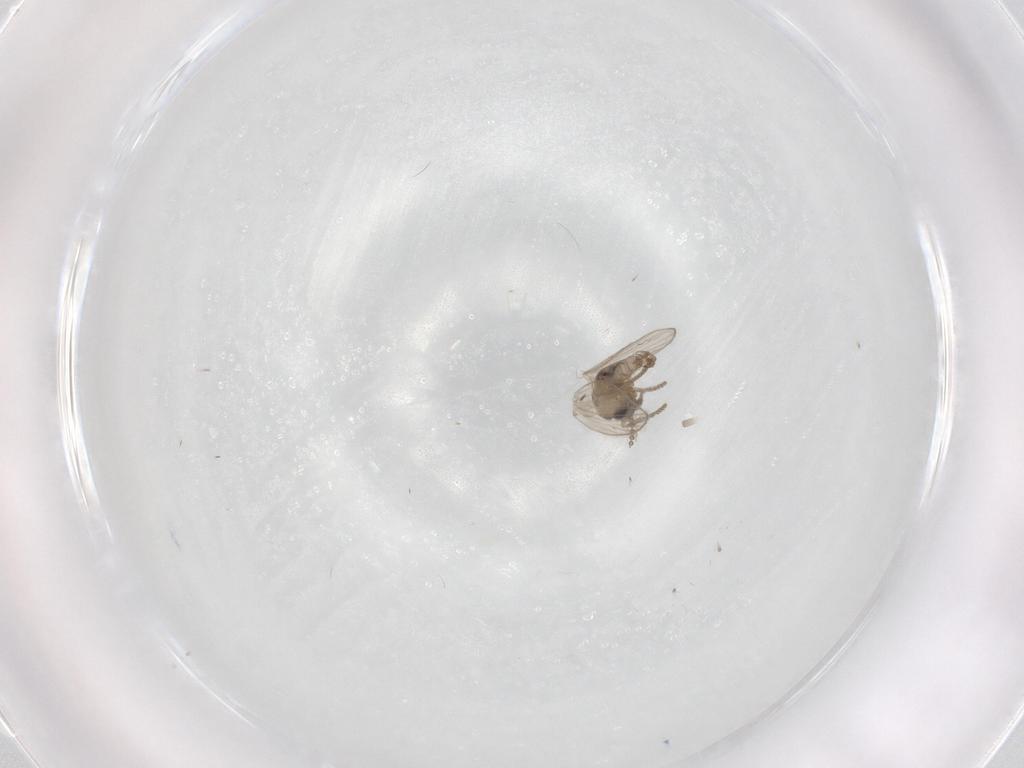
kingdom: Animalia
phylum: Arthropoda
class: Insecta
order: Diptera
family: Psychodidae
